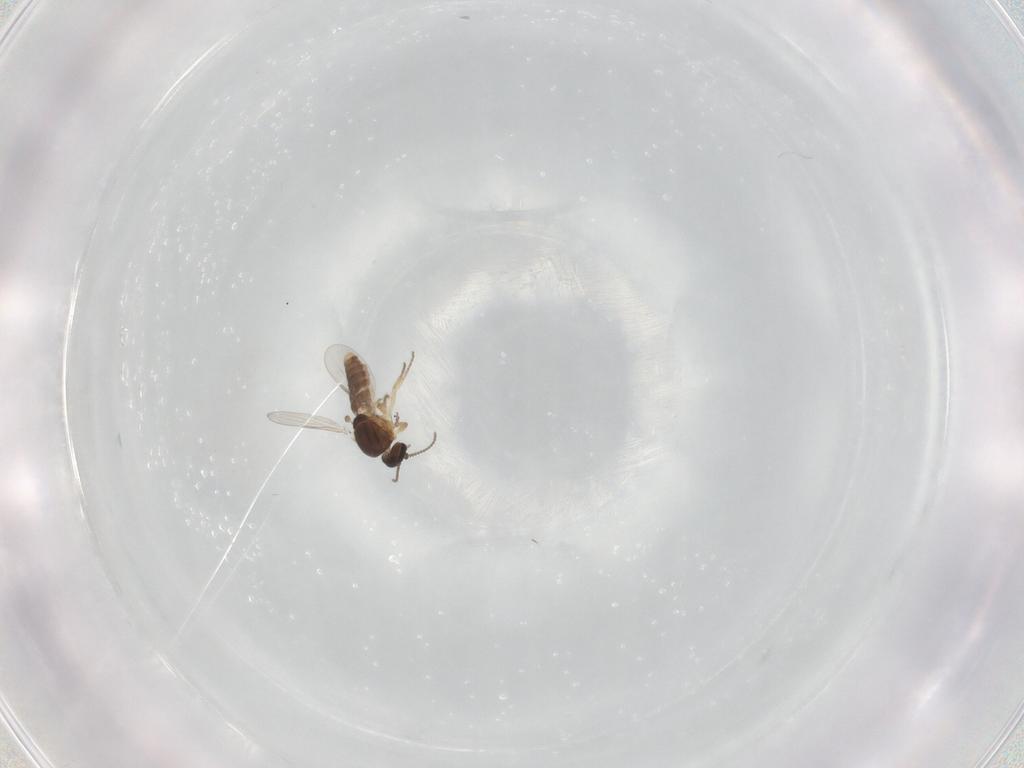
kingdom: Animalia
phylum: Arthropoda
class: Insecta
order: Diptera
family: Ceratopogonidae
